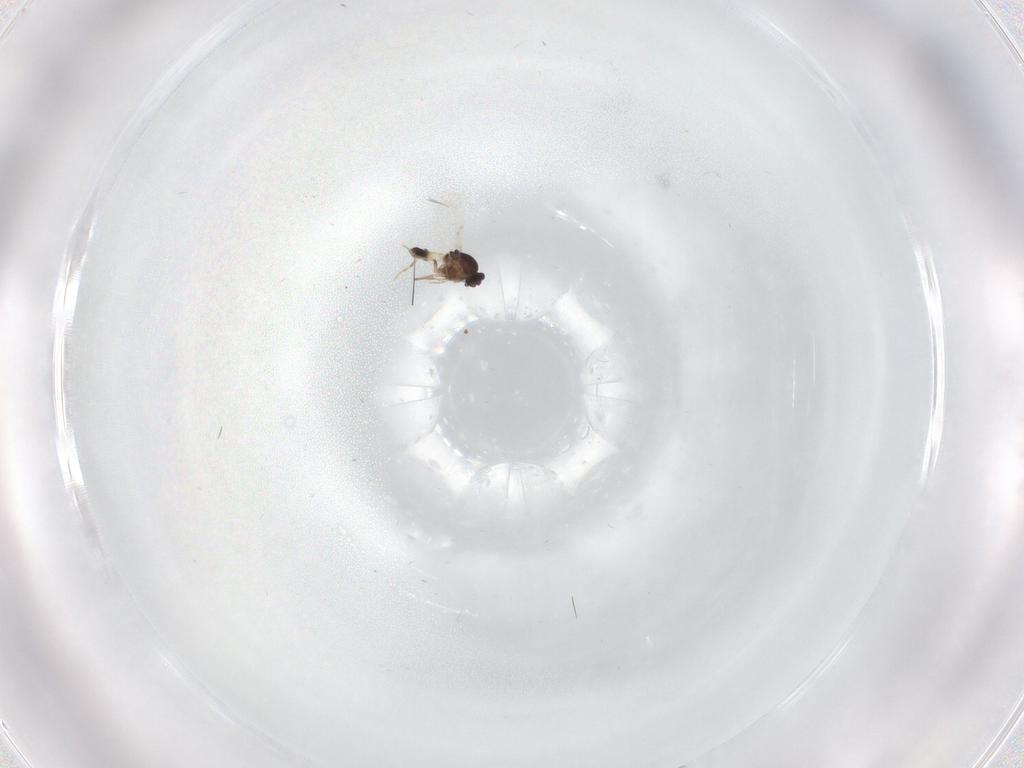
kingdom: Animalia
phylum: Arthropoda
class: Insecta
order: Diptera
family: Ceratopogonidae
